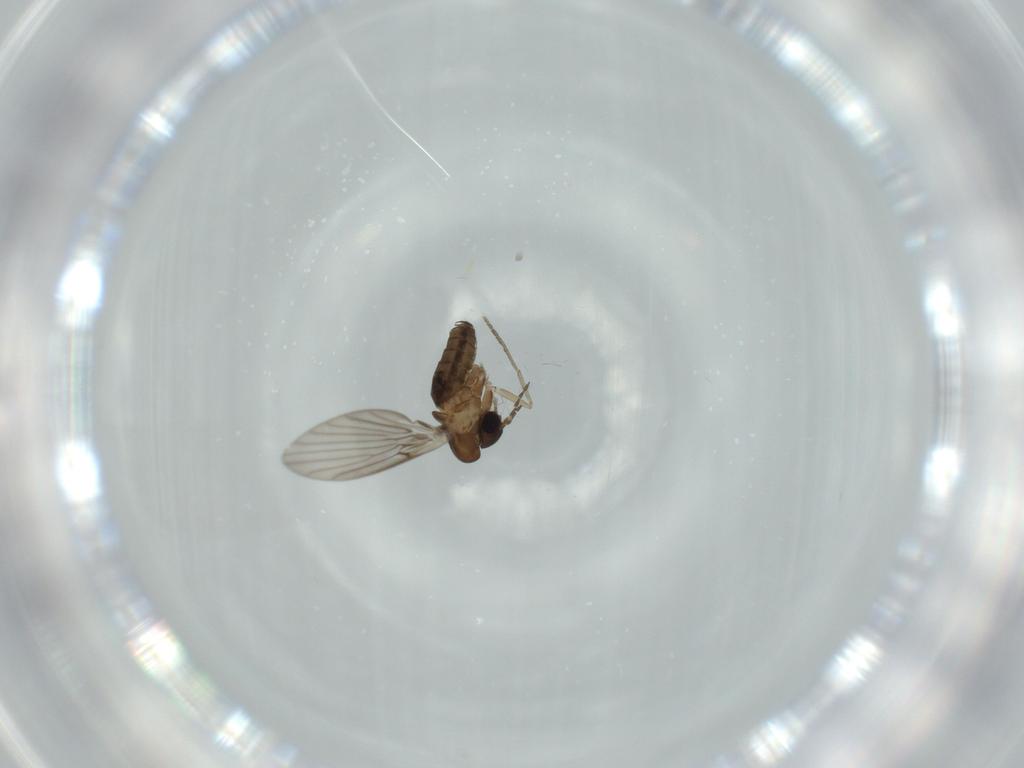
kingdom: Animalia
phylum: Arthropoda
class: Insecta
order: Diptera
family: Psychodidae
